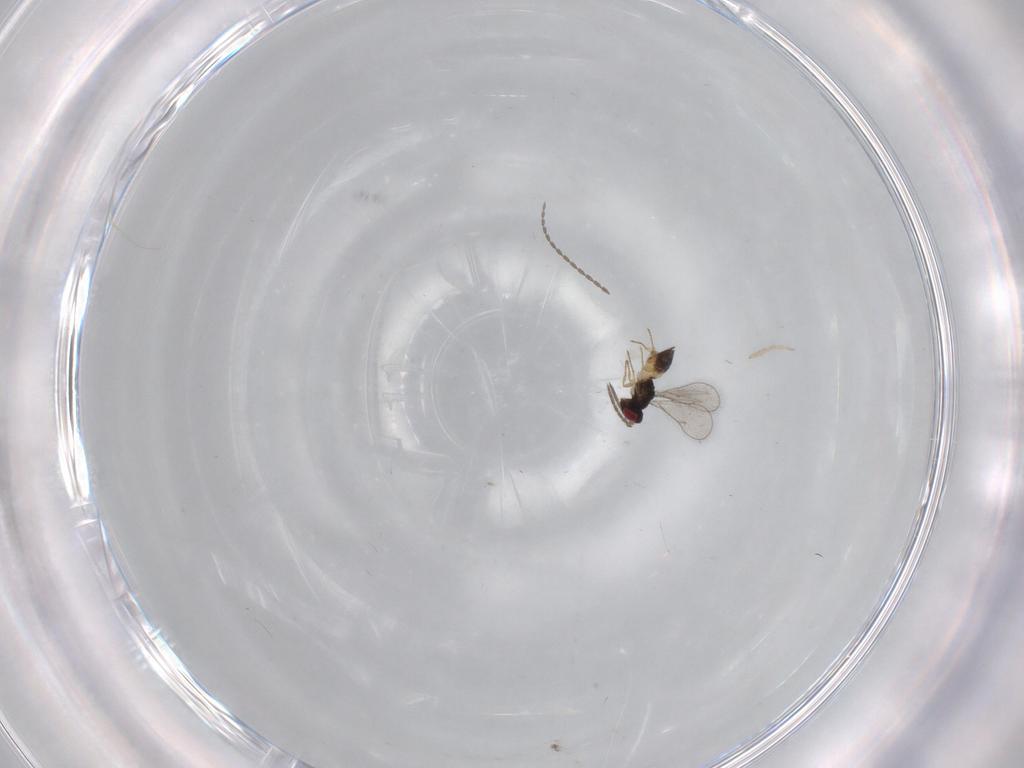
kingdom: Animalia
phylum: Arthropoda
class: Insecta
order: Hymenoptera
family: Eulophidae
